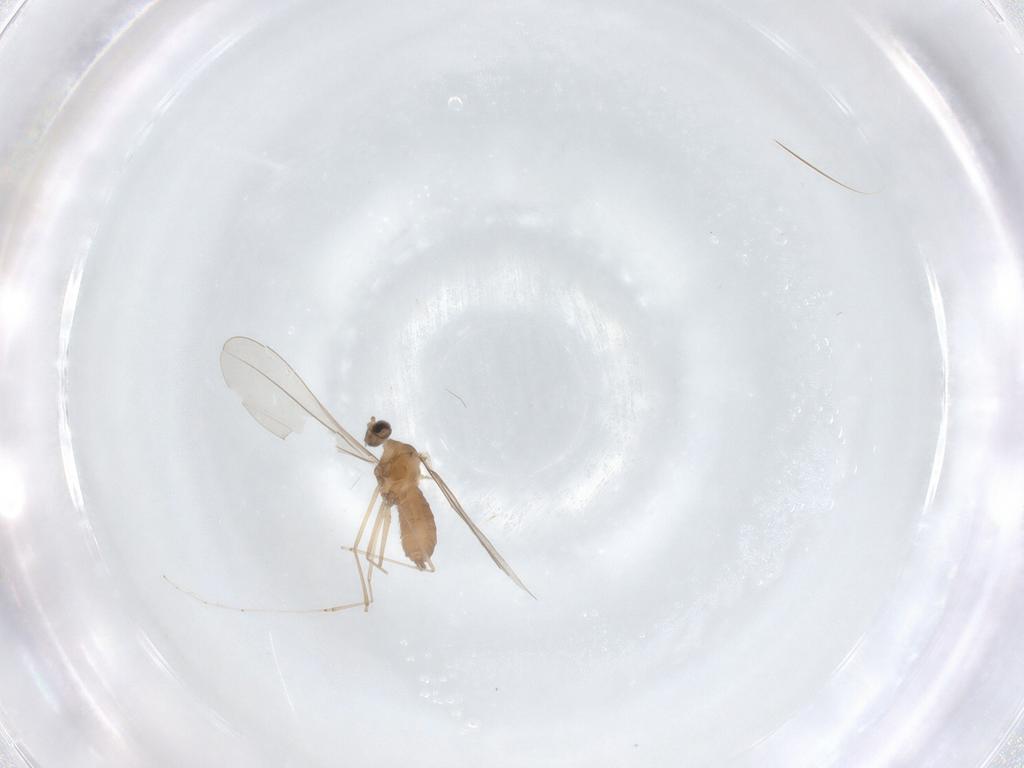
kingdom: Animalia
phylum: Arthropoda
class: Insecta
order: Diptera
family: Cecidomyiidae
